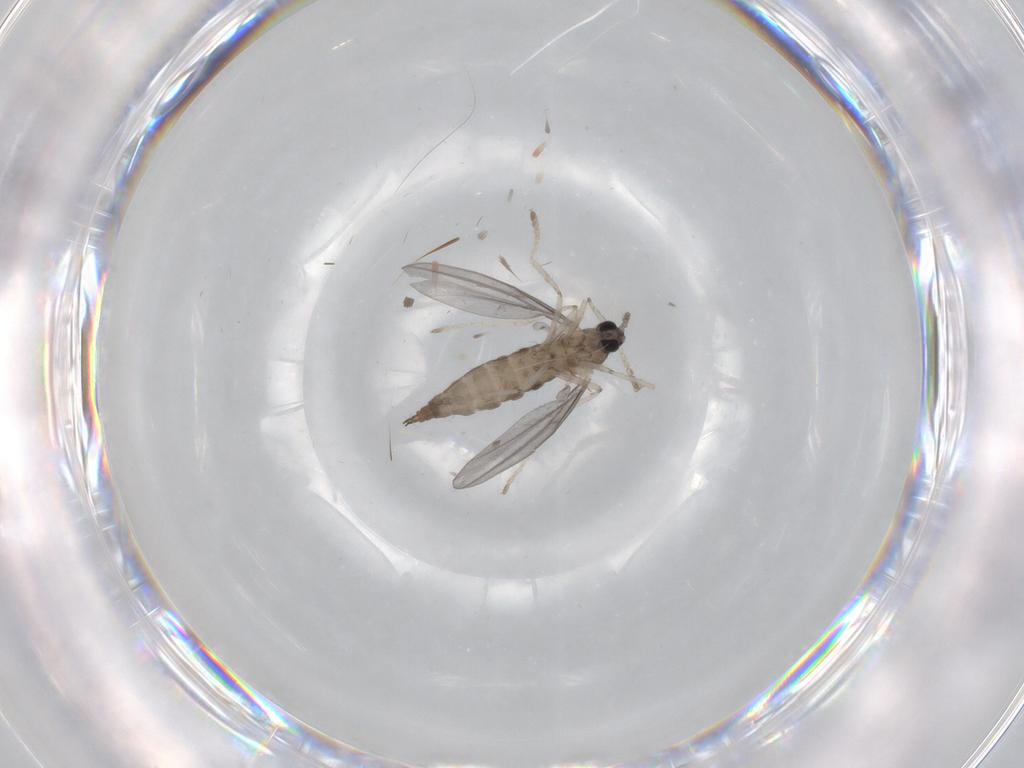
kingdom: Animalia
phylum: Arthropoda
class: Insecta
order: Diptera
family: Cecidomyiidae
